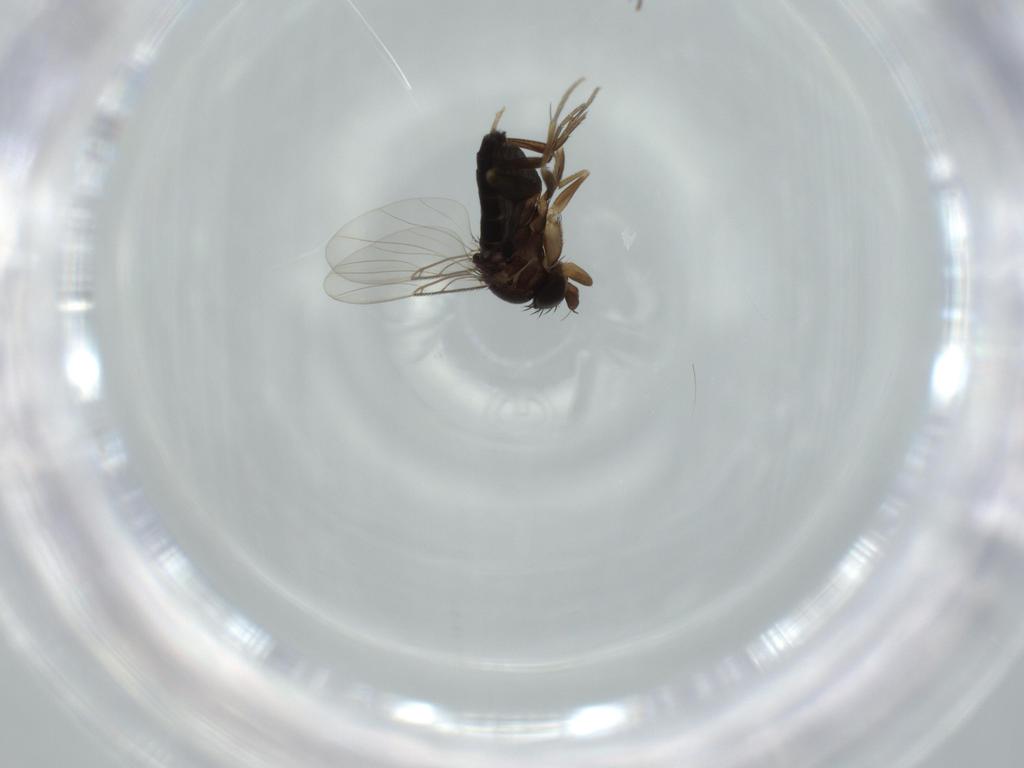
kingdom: Animalia
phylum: Arthropoda
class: Insecta
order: Diptera
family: Phoridae
